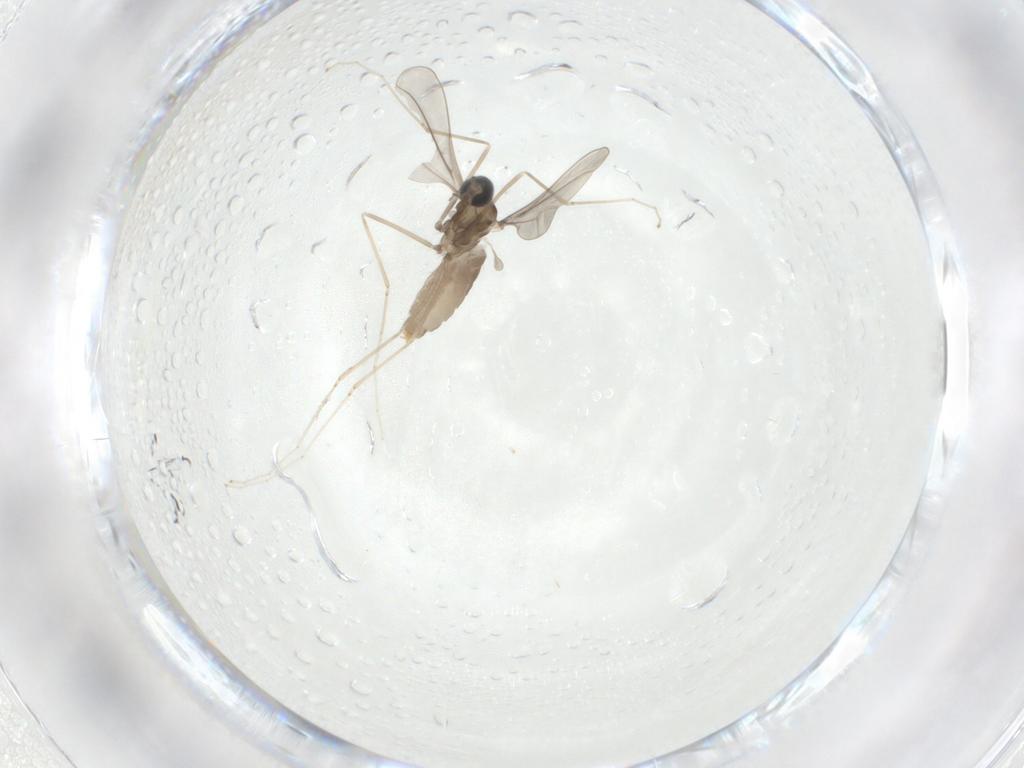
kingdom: Animalia
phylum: Arthropoda
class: Insecta
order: Diptera
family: Cecidomyiidae
